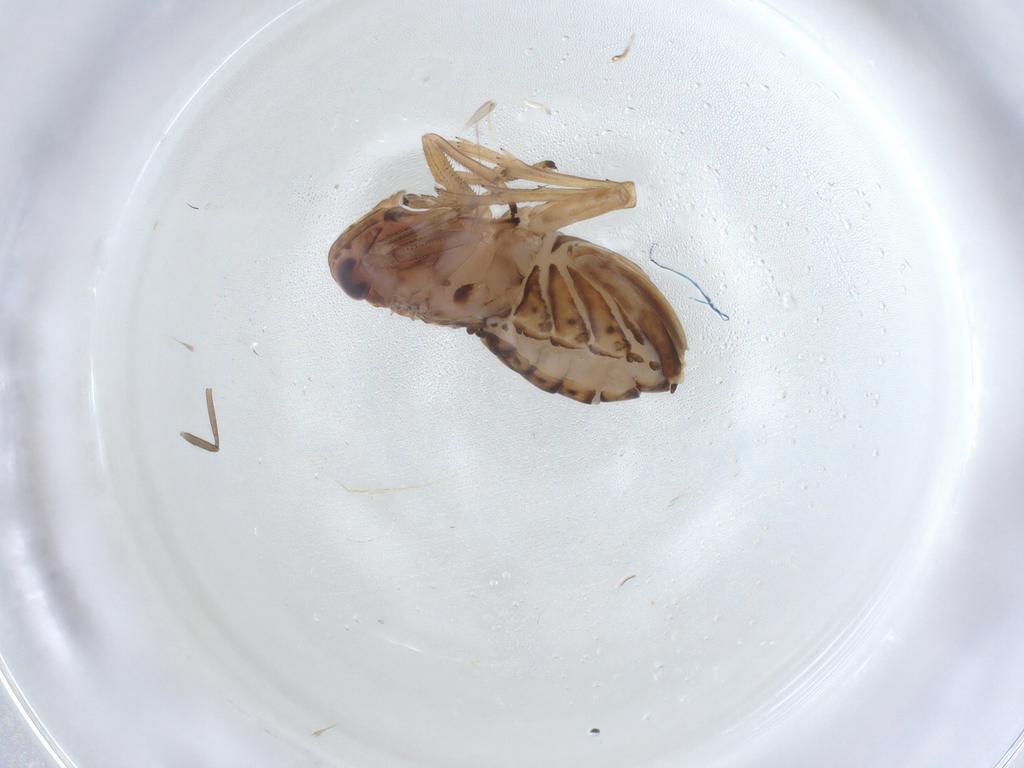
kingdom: Animalia
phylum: Arthropoda
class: Insecta
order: Hemiptera
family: Delphacidae
